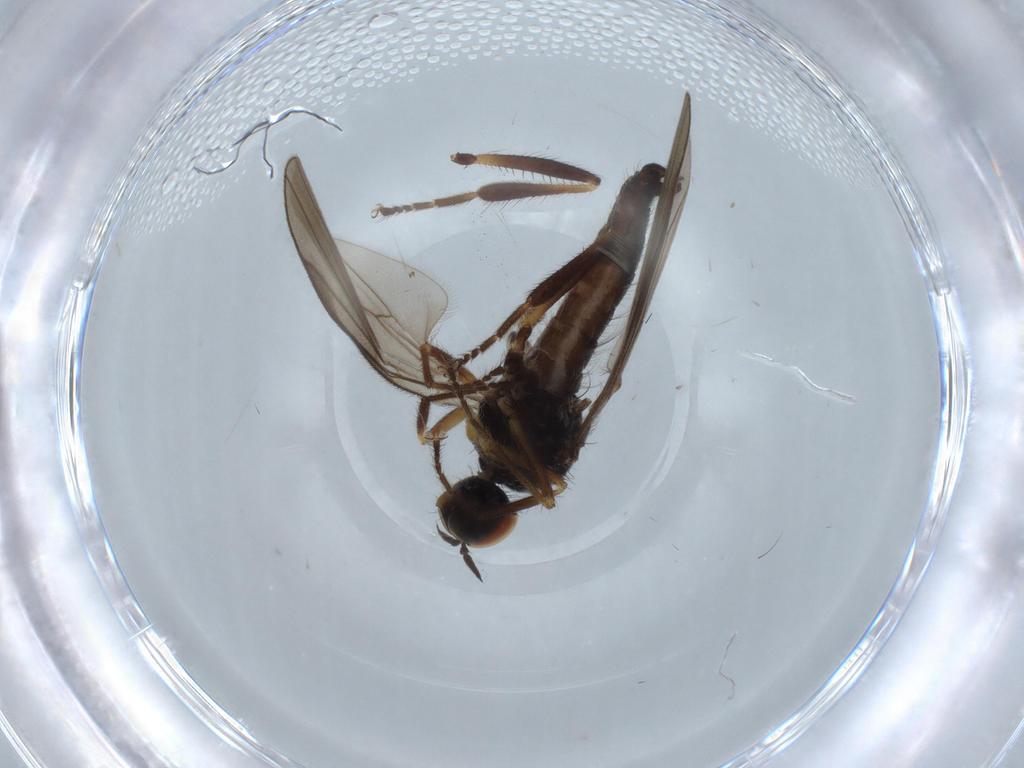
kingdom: Animalia
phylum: Arthropoda
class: Insecta
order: Diptera
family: Hybotidae
